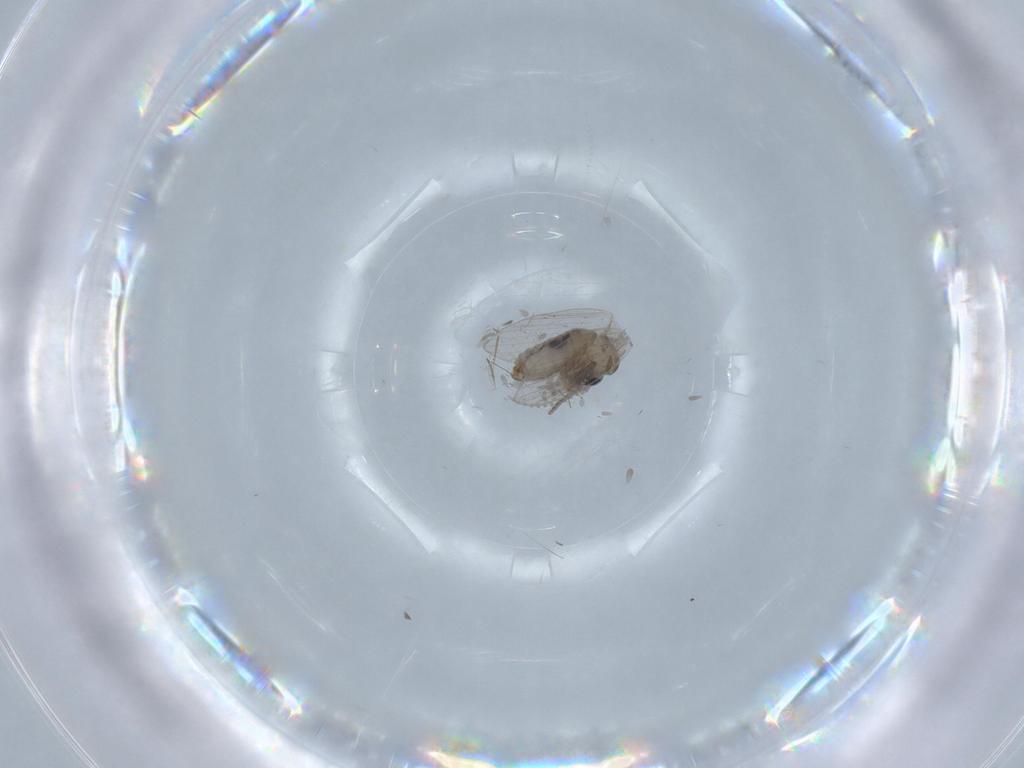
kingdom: Animalia
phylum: Arthropoda
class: Insecta
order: Diptera
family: Psychodidae
